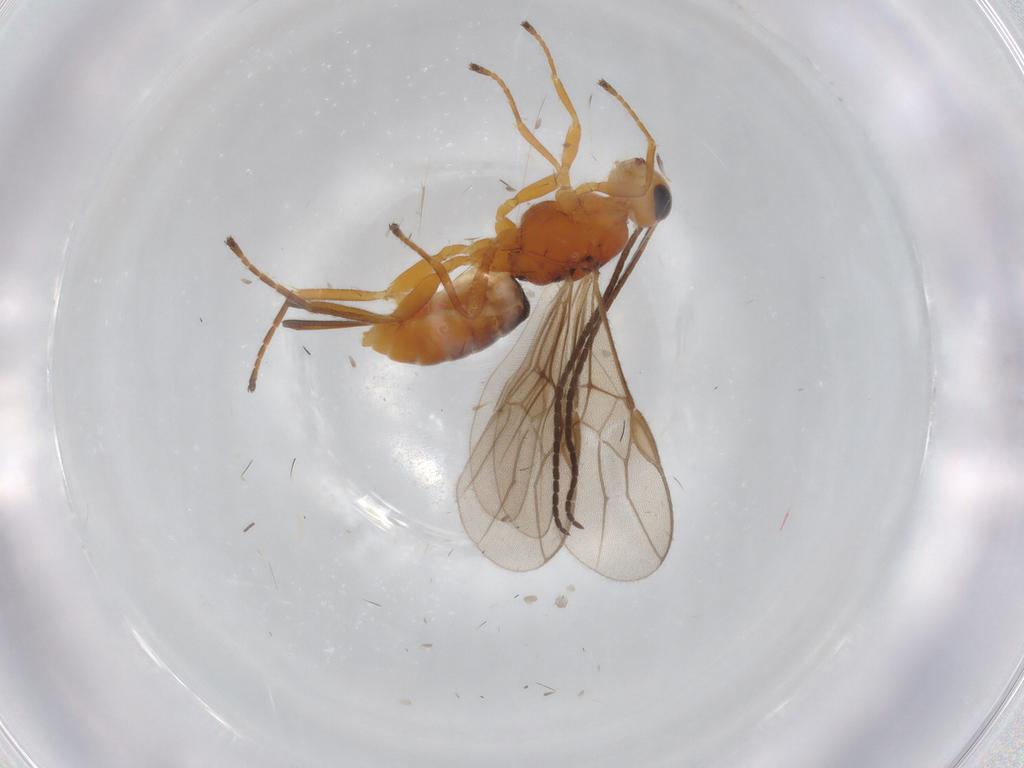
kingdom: Animalia
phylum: Arthropoda
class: Insecta
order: Hymenoptera
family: Braconidae
